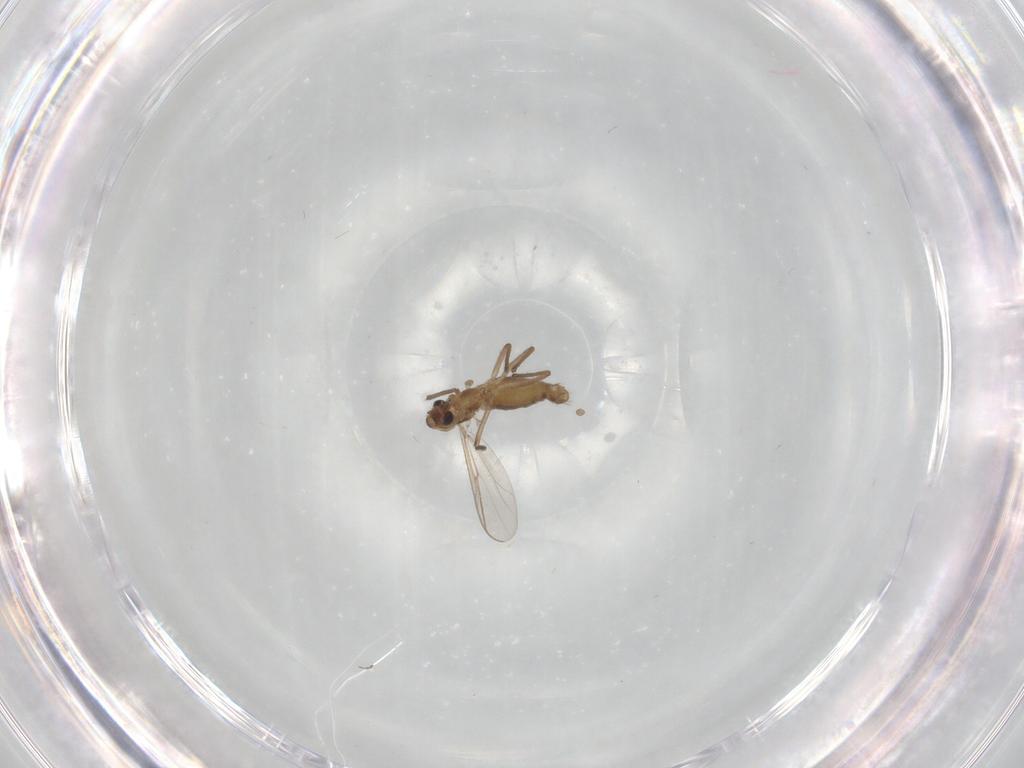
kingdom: Animalia
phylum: Arthropoda
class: Insecta
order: Diptera
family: Chironomidae
